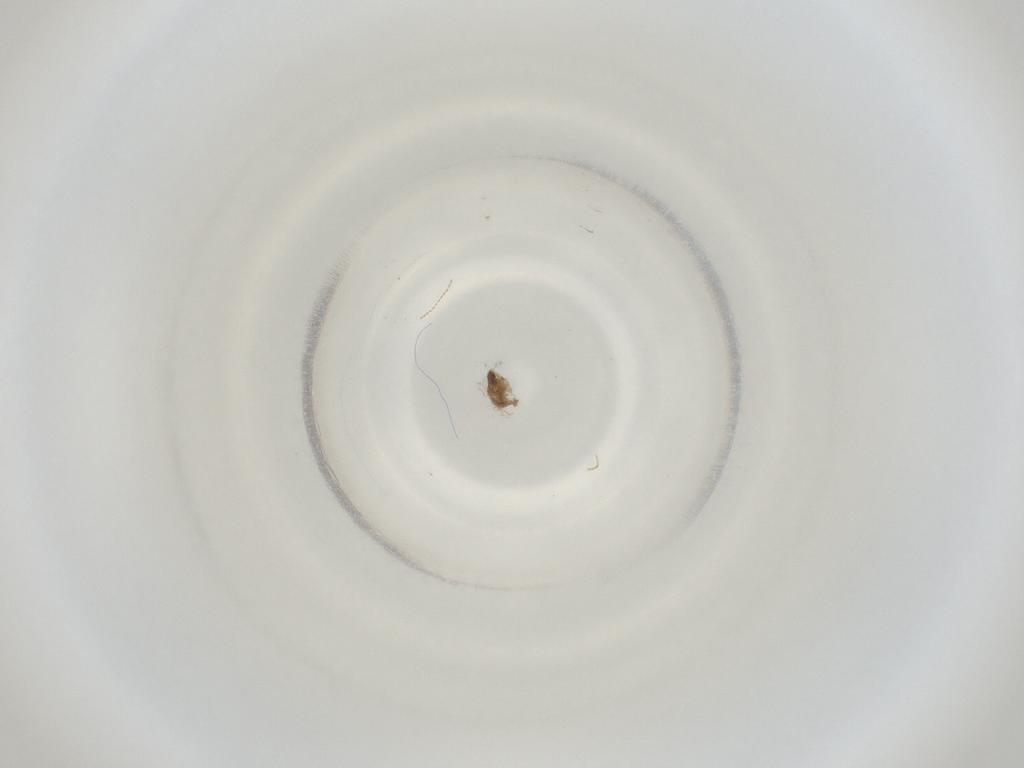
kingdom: Animalia
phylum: Arthropoda
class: Insecta
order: Diptera
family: Cecidomyiidae
